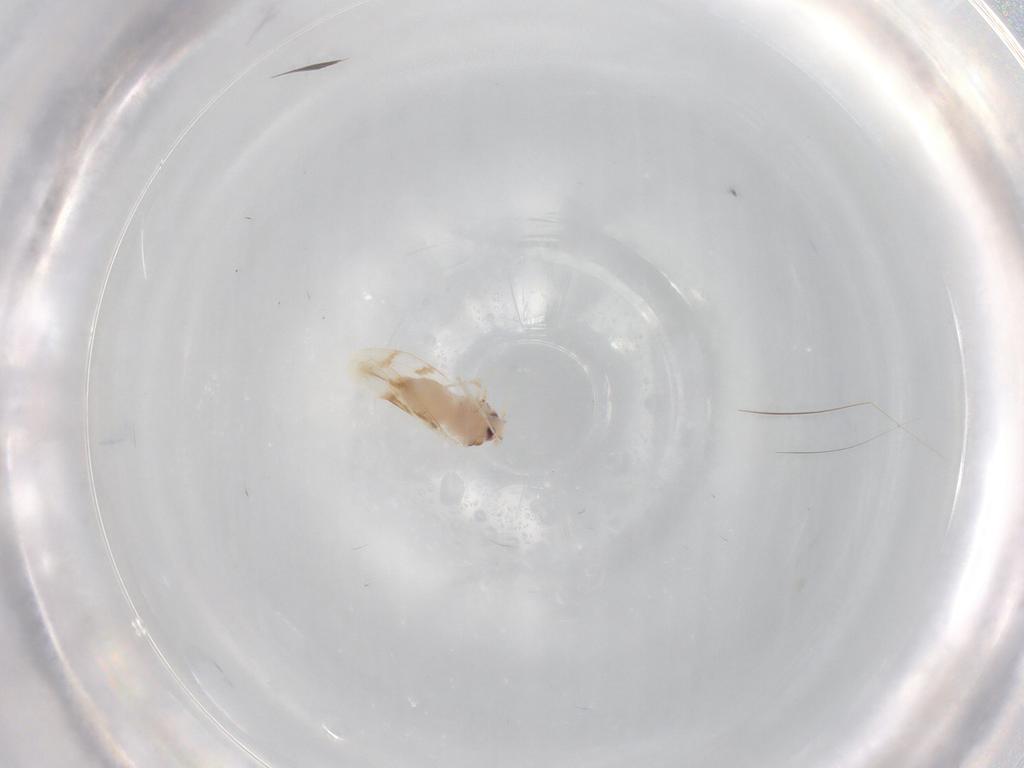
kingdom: Animalia
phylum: Arthropoda
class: Insecta
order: Hemiptera
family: Aleyrodidae
